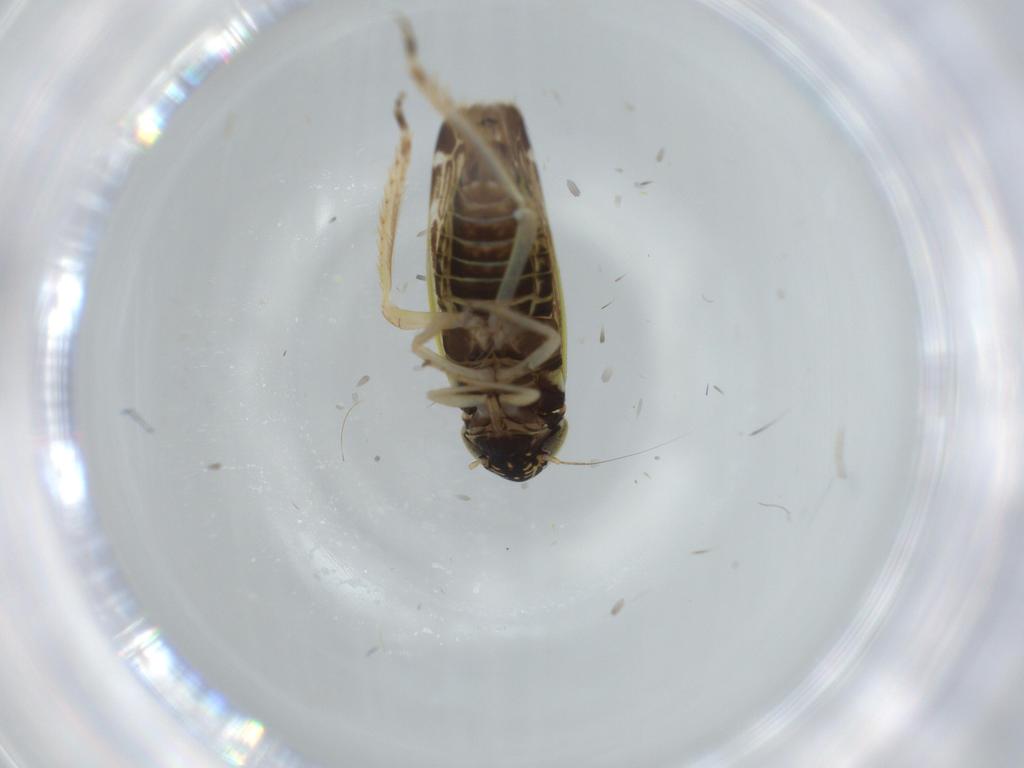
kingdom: Animalia
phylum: Arthropoda
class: Insecta
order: Hemiptera
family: Cicadellidae
